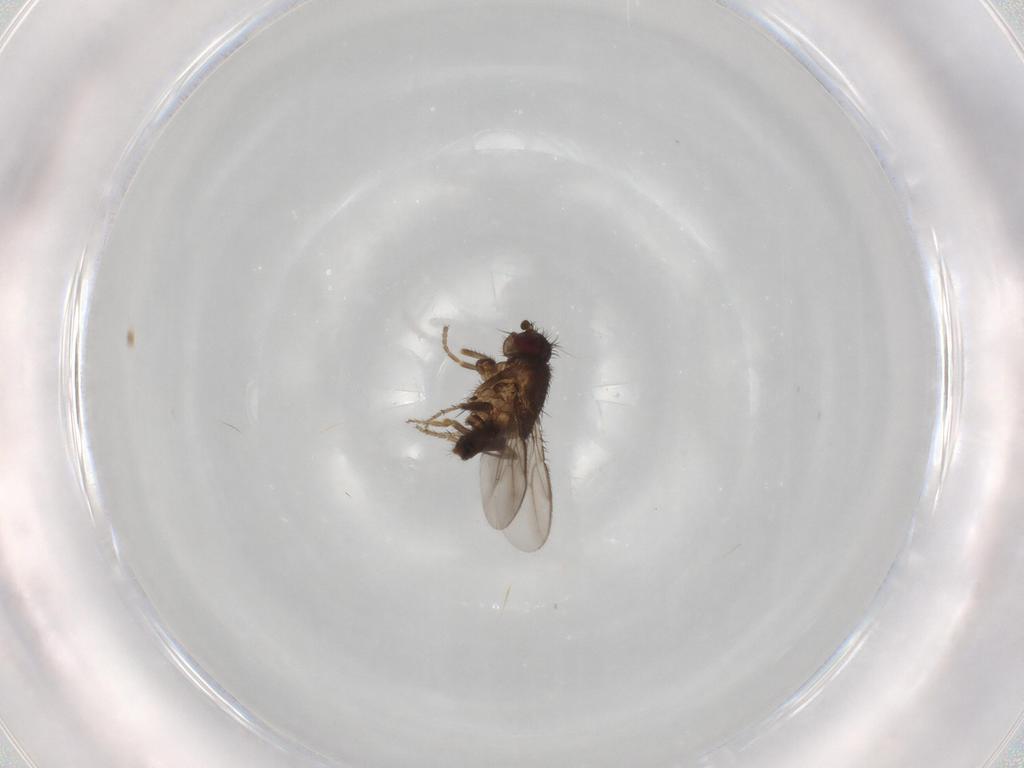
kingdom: Animalia
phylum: Arthropoda
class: Insecta
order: Diptera
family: Sphaeroceridae
